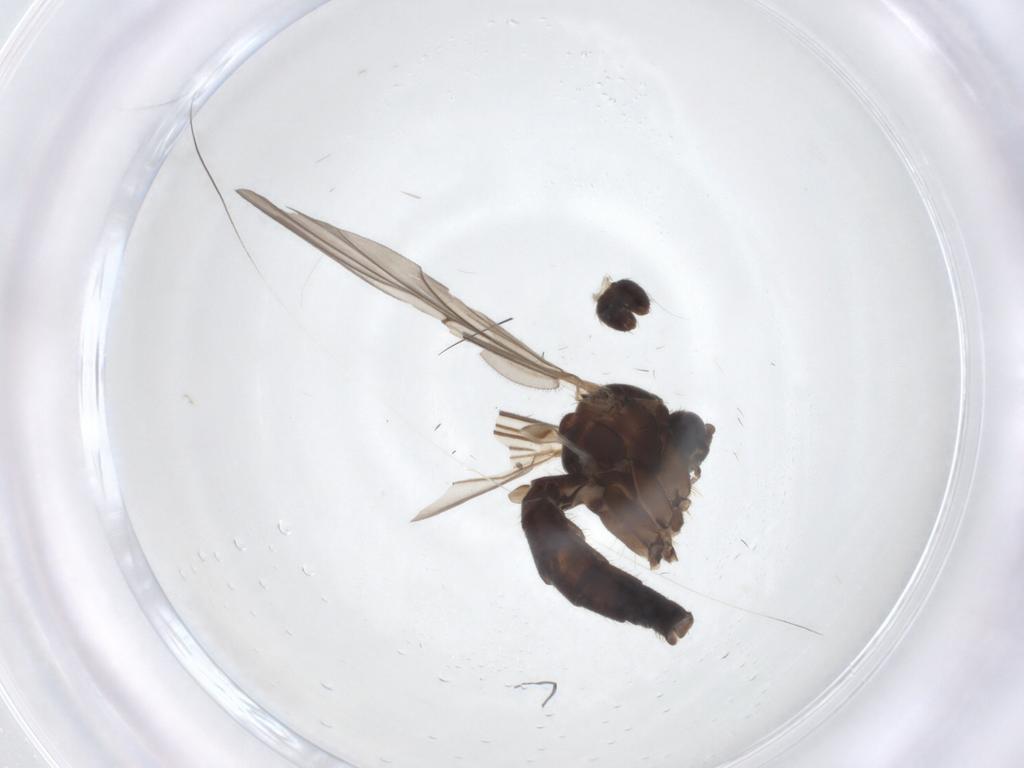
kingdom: Animalia
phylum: Arthropoda
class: Insecta
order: Diptera
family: Mycetophilidae
